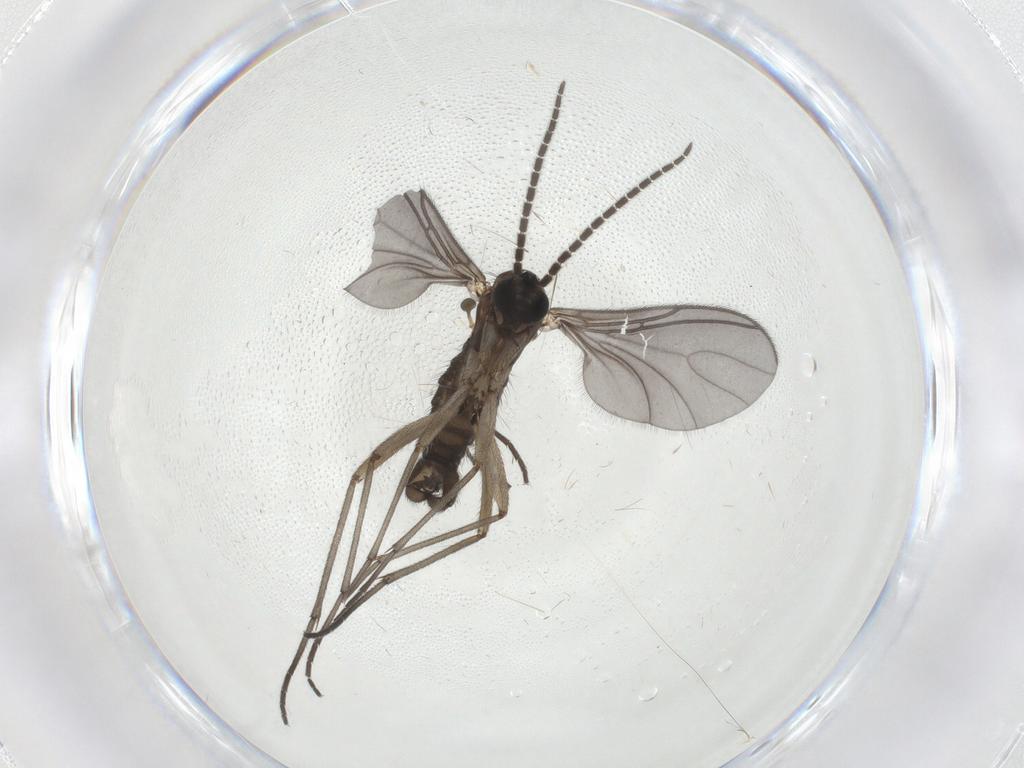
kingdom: Animalia
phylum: Arthropoda
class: Insecta
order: Diptera
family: Sciaridae
